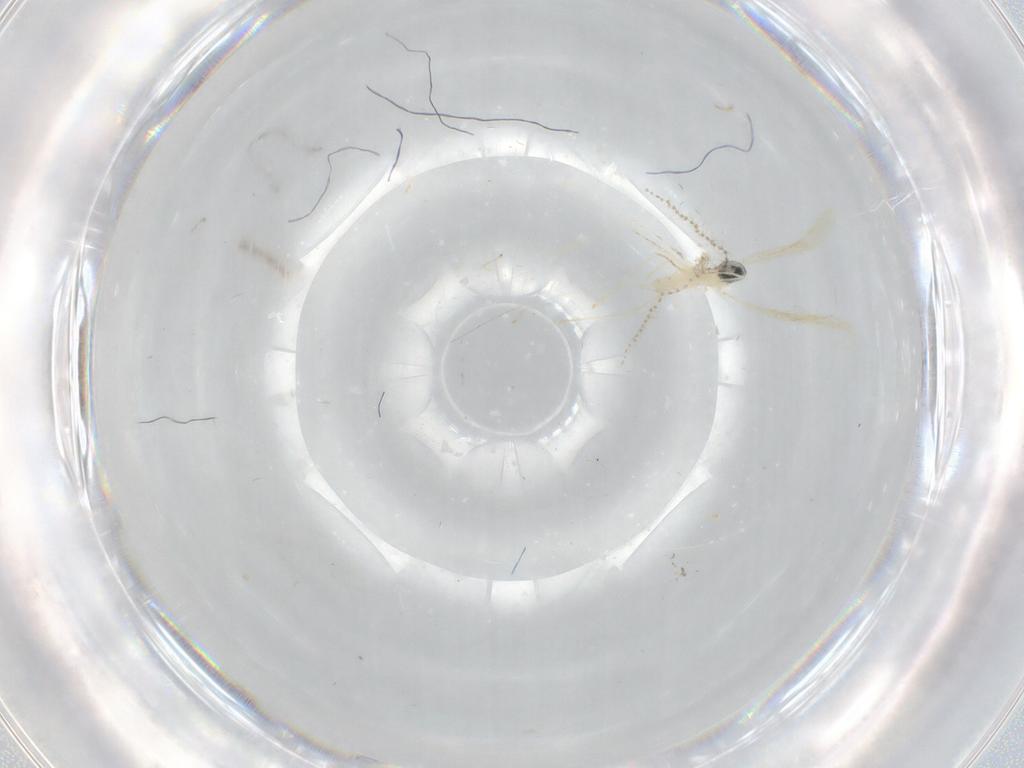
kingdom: Animalia
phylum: Arthropoda
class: Insecta
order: Diptera
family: Cecidomyiidae
